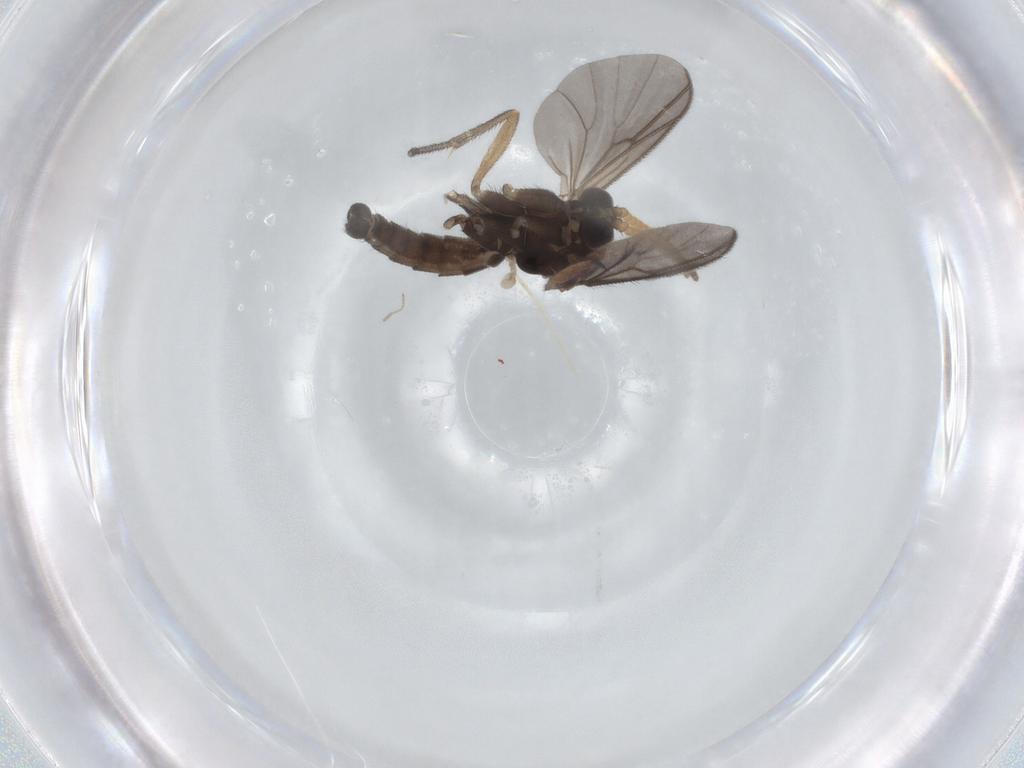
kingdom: Animalia
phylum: Arthropoda
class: Insecta
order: Diptera
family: Mycetophilidae
